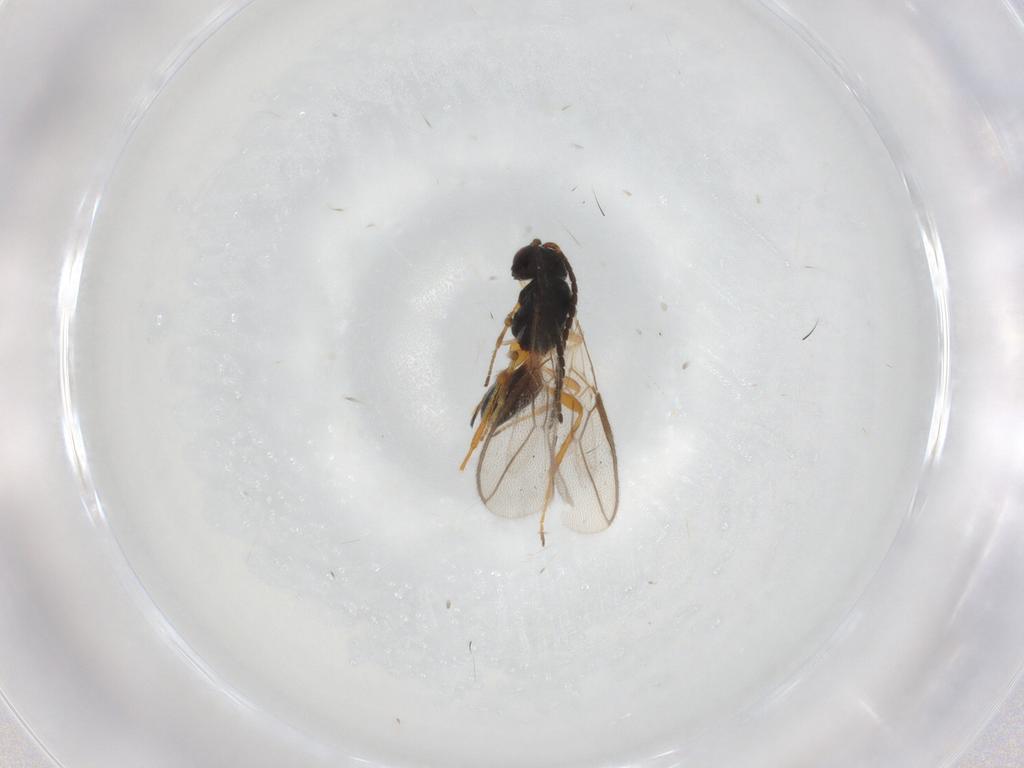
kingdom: Animalia
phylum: Arthropoda
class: Insecta
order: Hymenoptera
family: Braconidae
